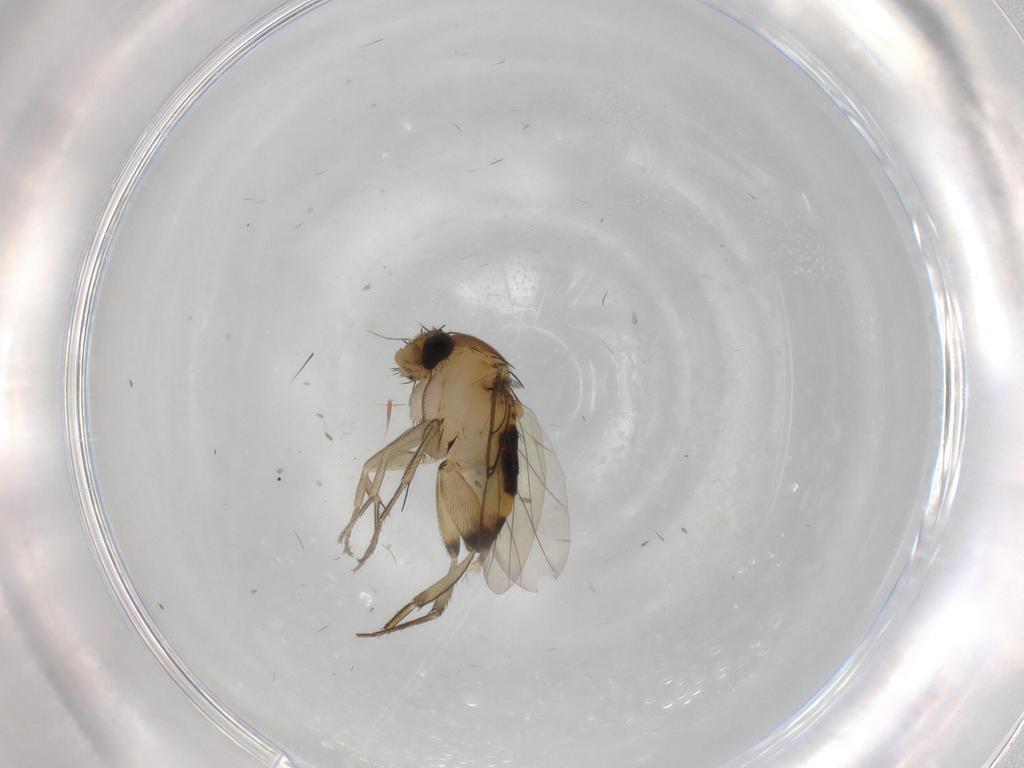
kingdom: Animalia
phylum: Arthropoda
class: Insecta
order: Diptera
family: Phoridae
